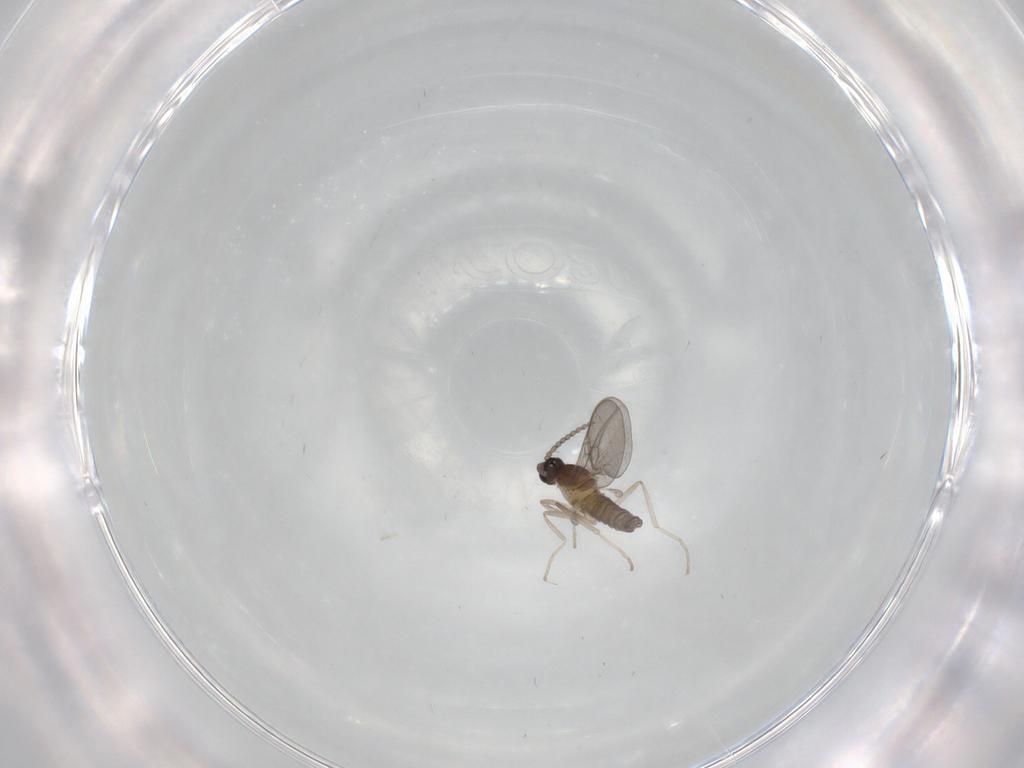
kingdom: Animalia
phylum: Arthropoda
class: Insecta
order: Diptera
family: Cecidomyiidae
